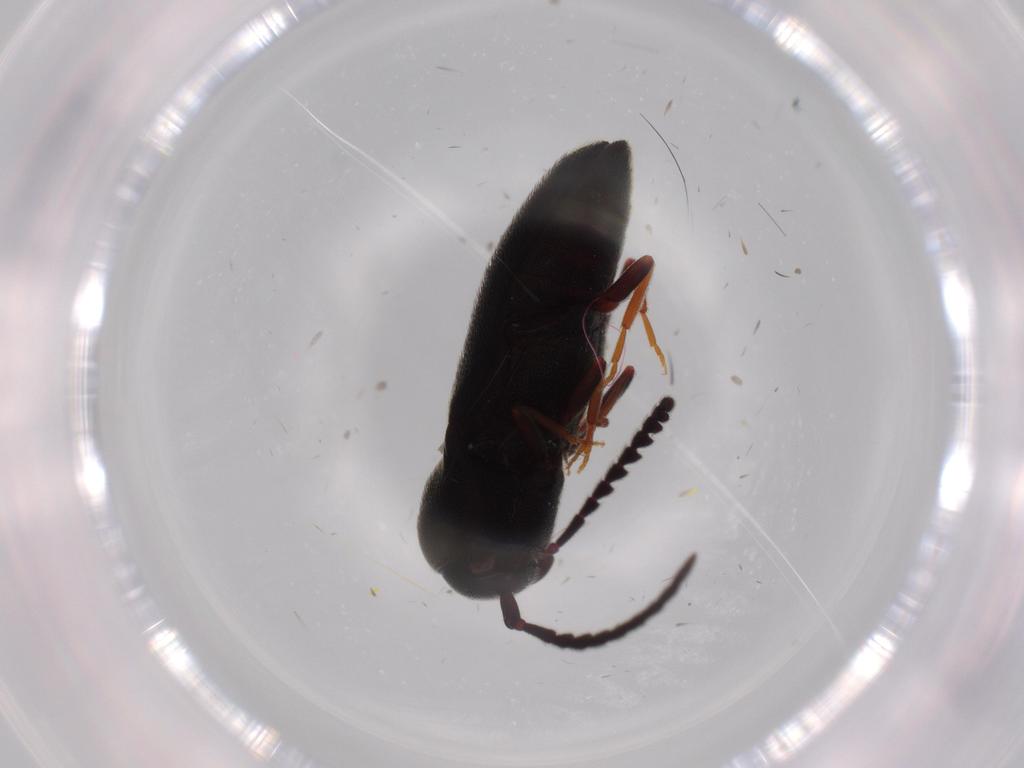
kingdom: Animalia
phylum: Arthropoda
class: Insecta
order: Coleoptera
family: Eucnemidae
